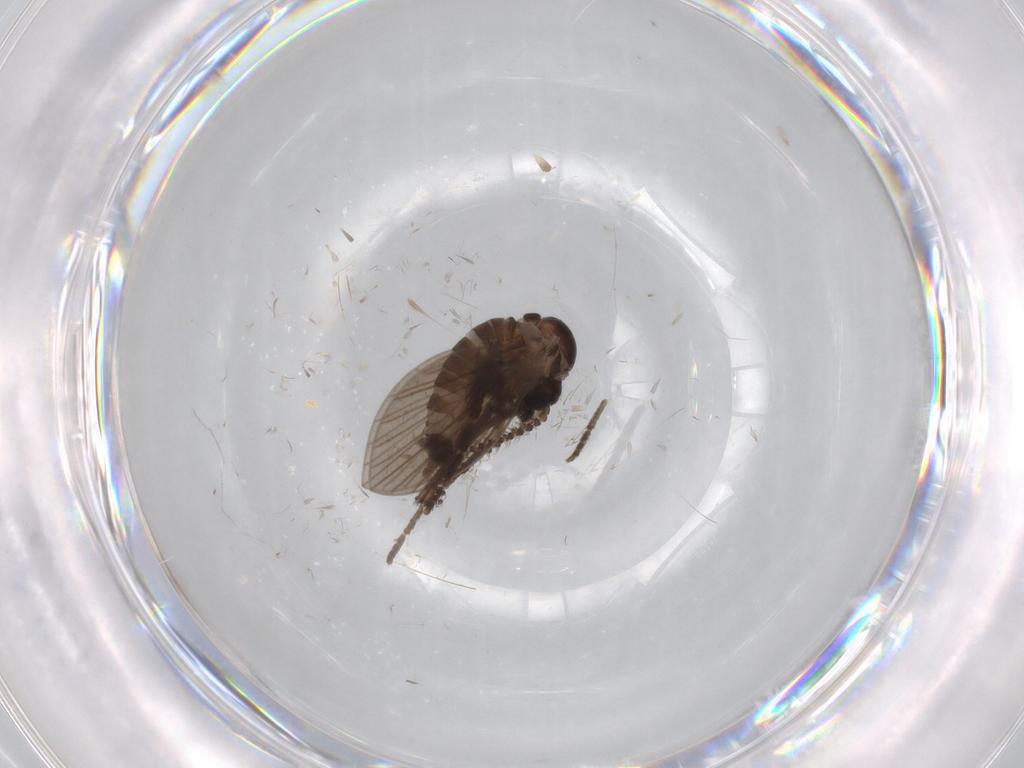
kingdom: Animalia
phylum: Arthropoda
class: Insecta
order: Diptera
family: Psychodidae
